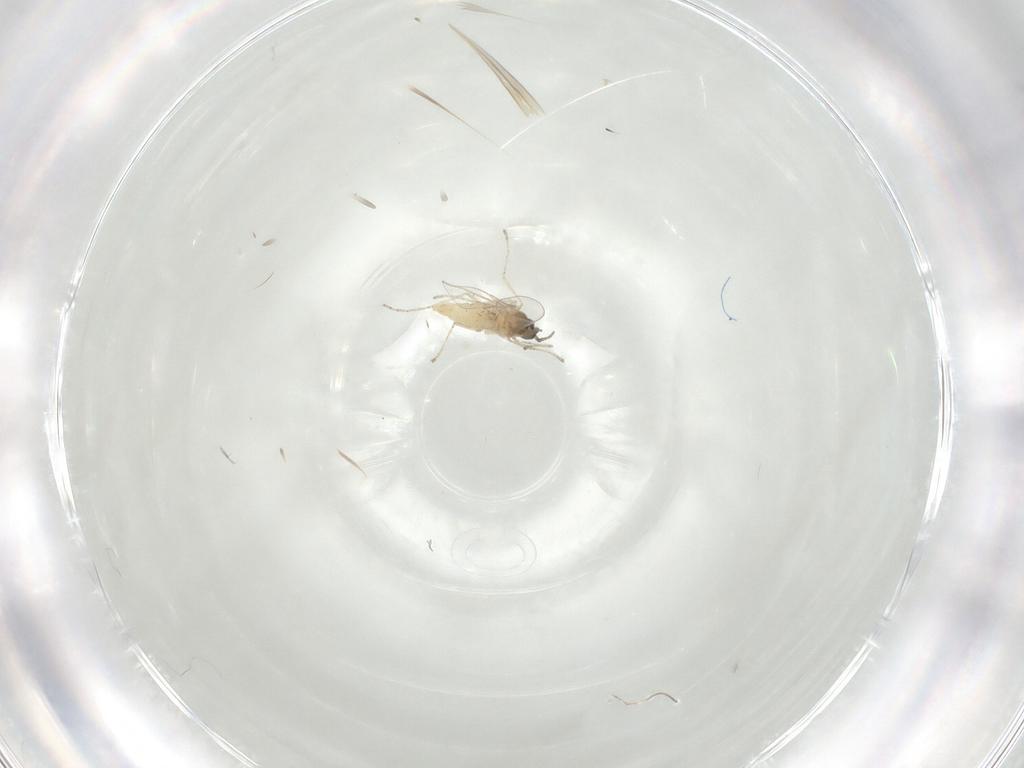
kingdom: Animalia
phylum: Arthropoda
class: Insecta
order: Diptera
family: Cecidomyiidae
